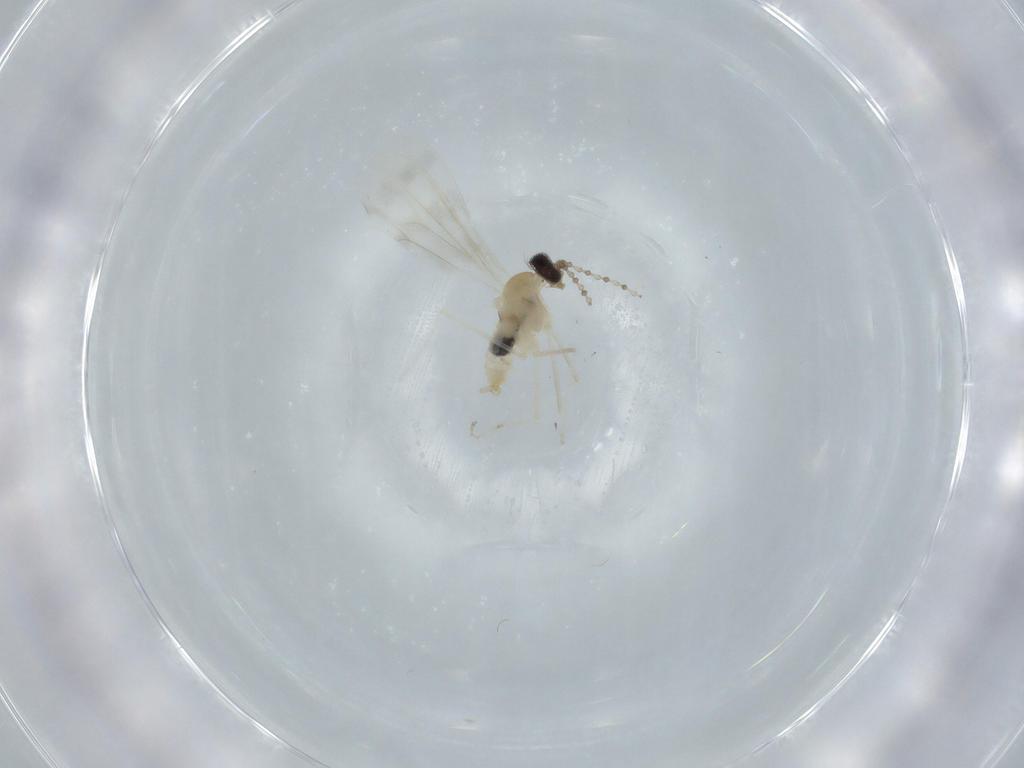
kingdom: Animalia
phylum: Arthropoda
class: Insecta
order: Diptera
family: Cecidomyiidae
